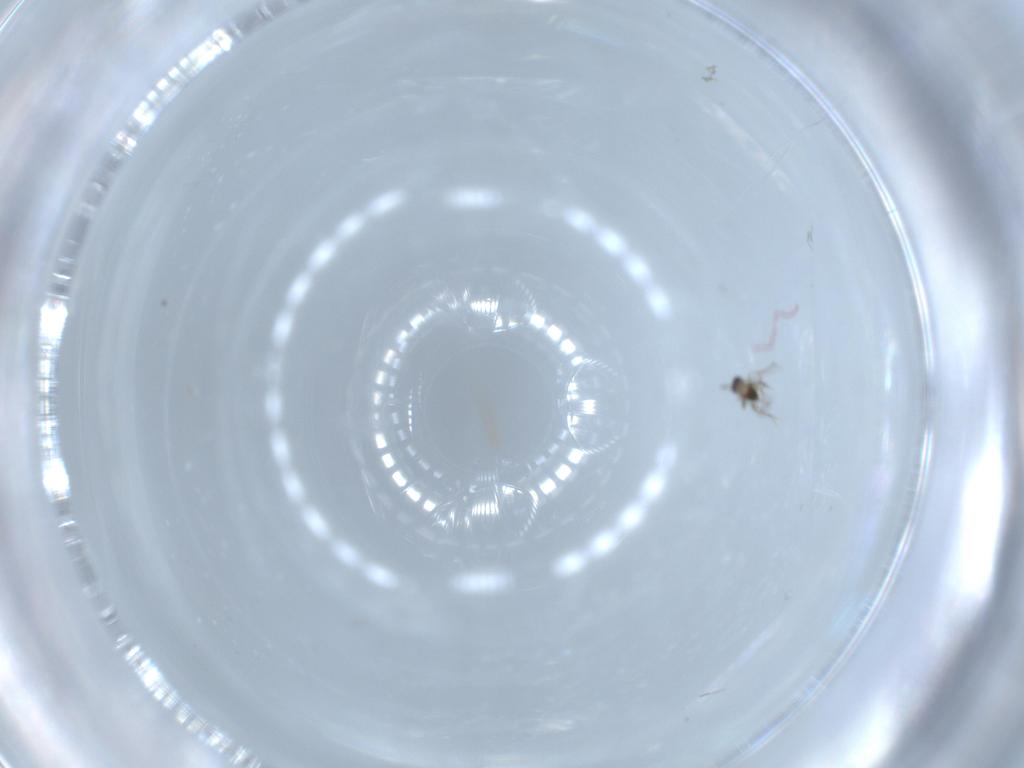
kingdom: Animalia
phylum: Arthropoda
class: Insecta
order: Hymenoptera
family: Mymaridae
